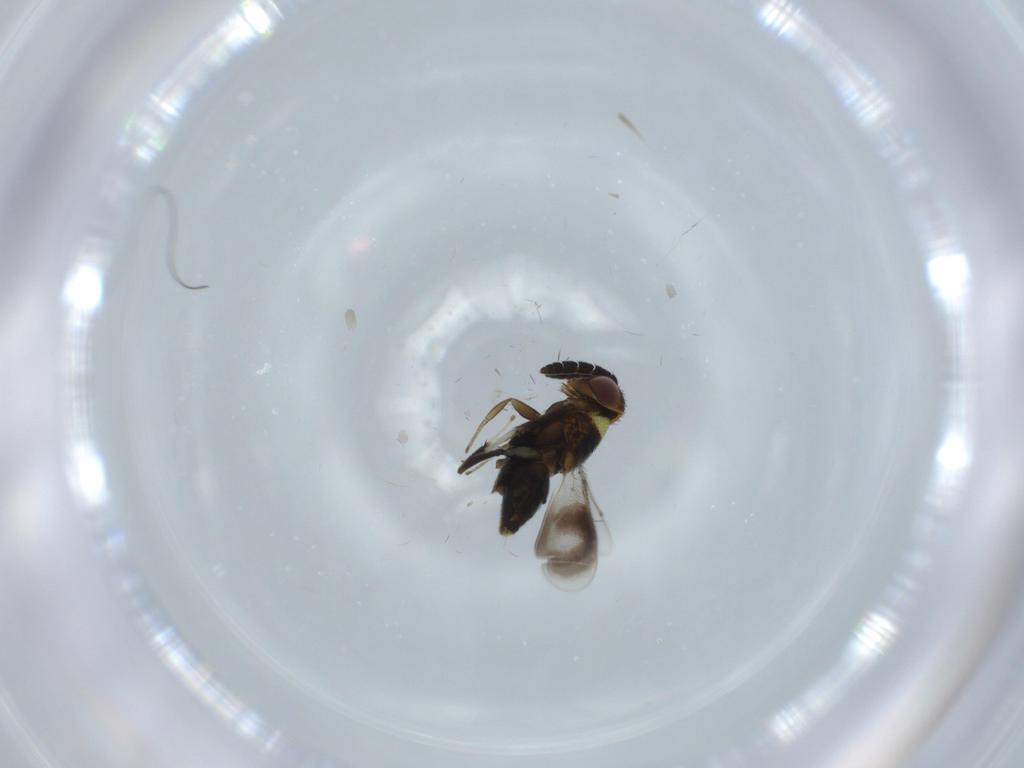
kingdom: Animalia
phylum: Arthropoda
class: Insecta
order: Hymenoptera
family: Aphelinidae
